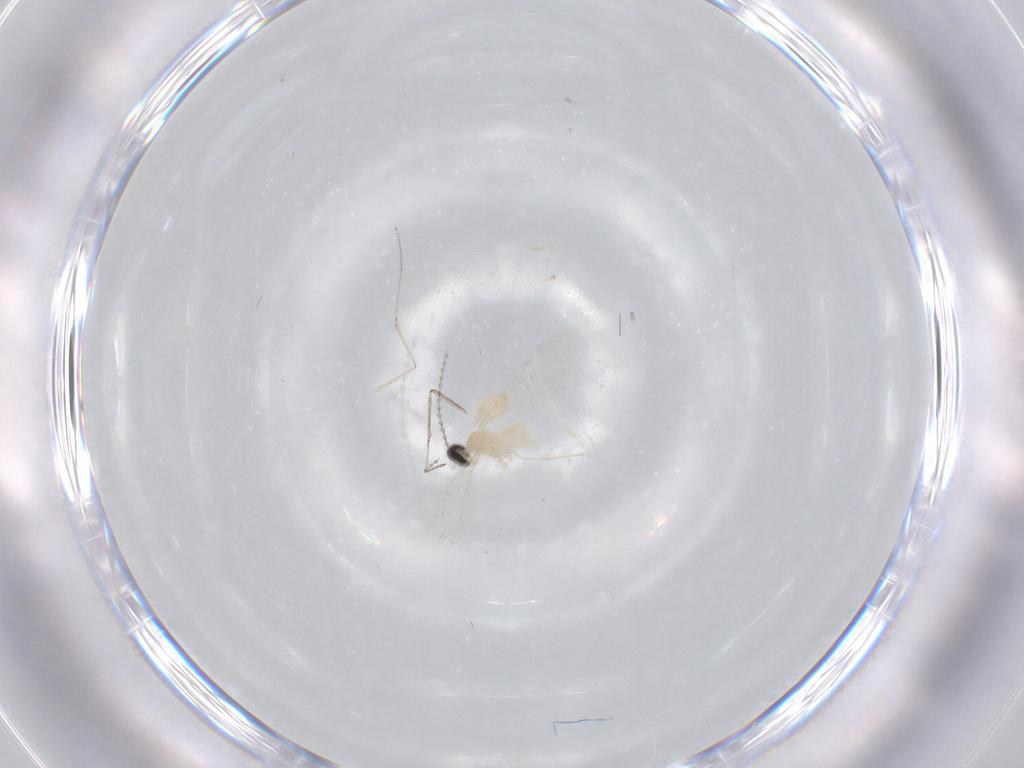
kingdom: Animalia
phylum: Arthropoda
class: Insecta
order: Diptera
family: Cecidomyiidae
